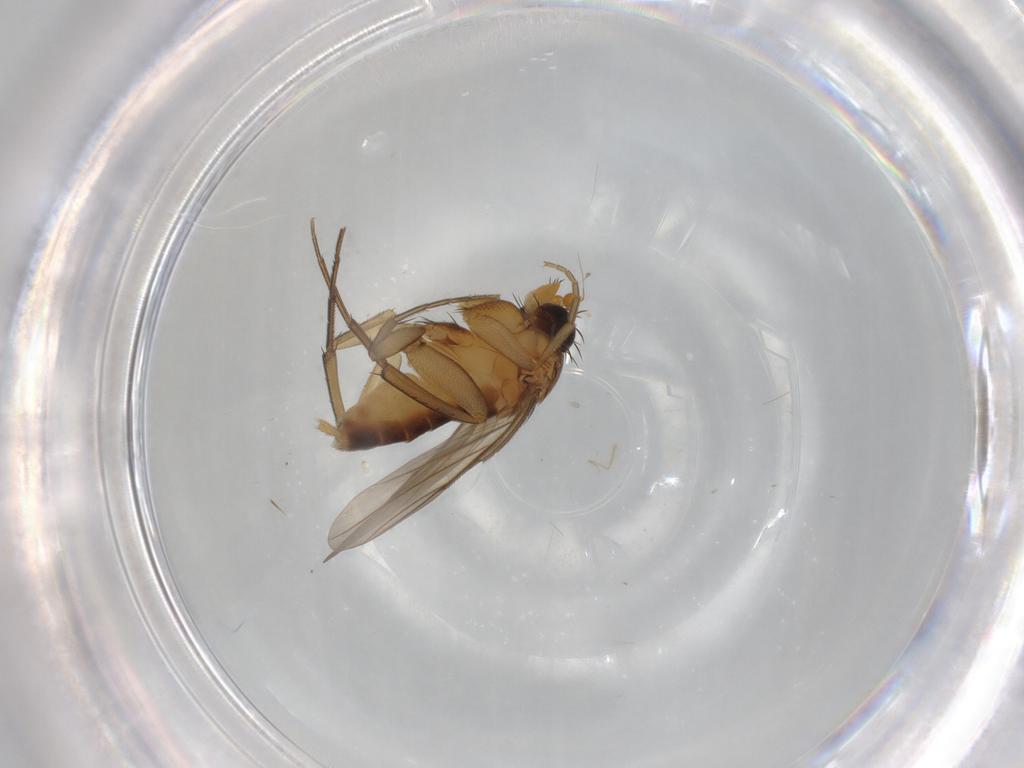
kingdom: Animalia
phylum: Arthropoda
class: Insecta
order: Diptera
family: Sciaridae
